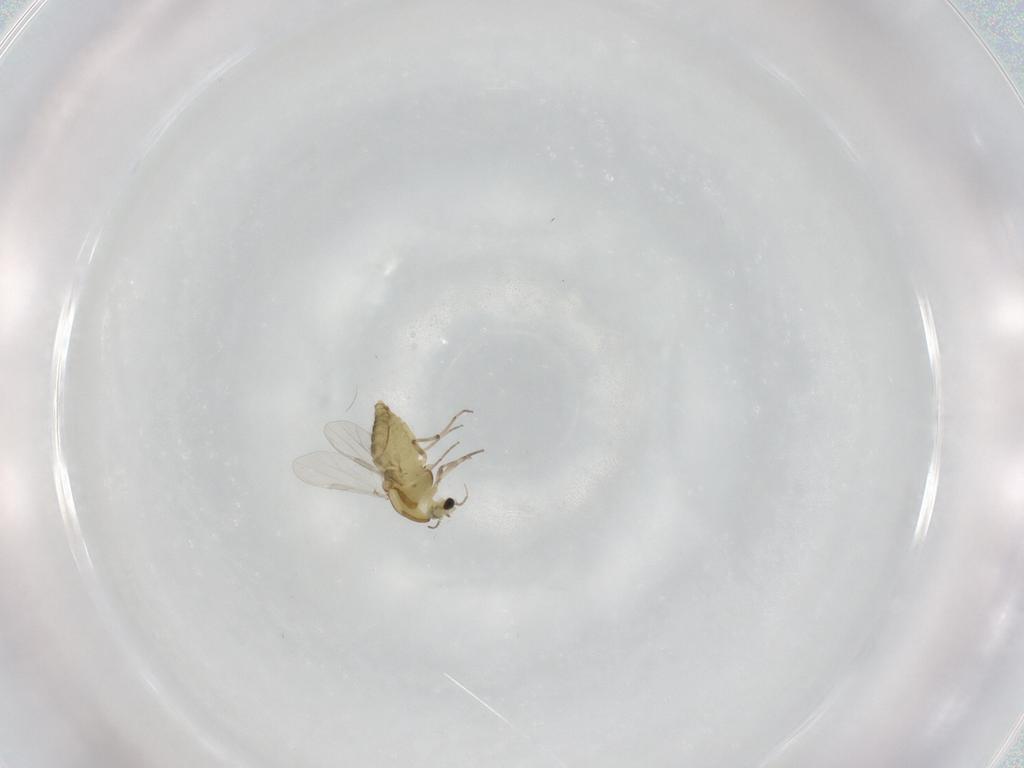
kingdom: Animalia
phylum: Arthropoda
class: Insecta
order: Diptera
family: Chironomidae
